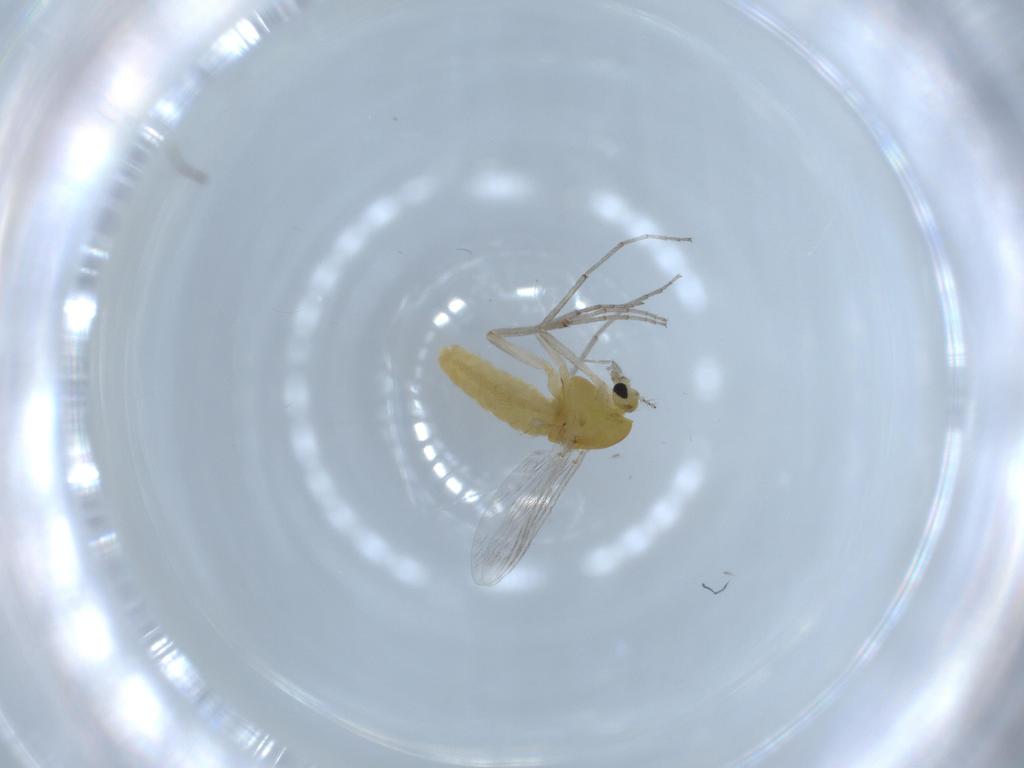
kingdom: Animalia
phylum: Arthropoda
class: Insecta
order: Diptera
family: Chironomidae
